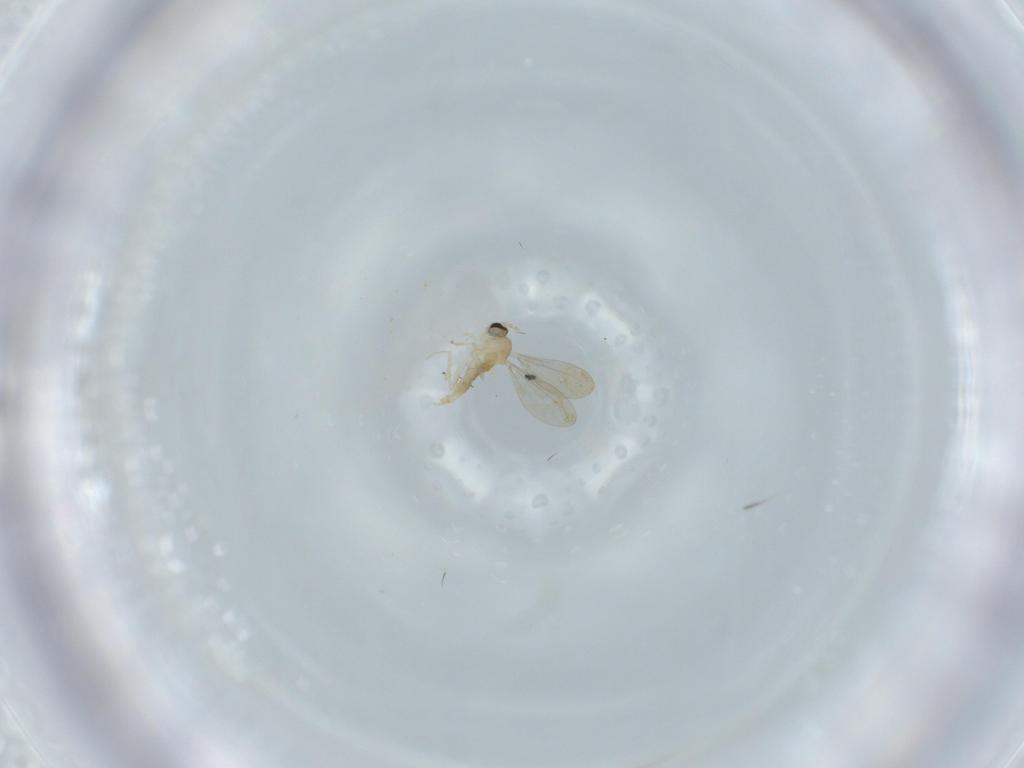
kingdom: Animalia
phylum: Arthropoda
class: Insecta
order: Diptera
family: Cecidomyiidae
